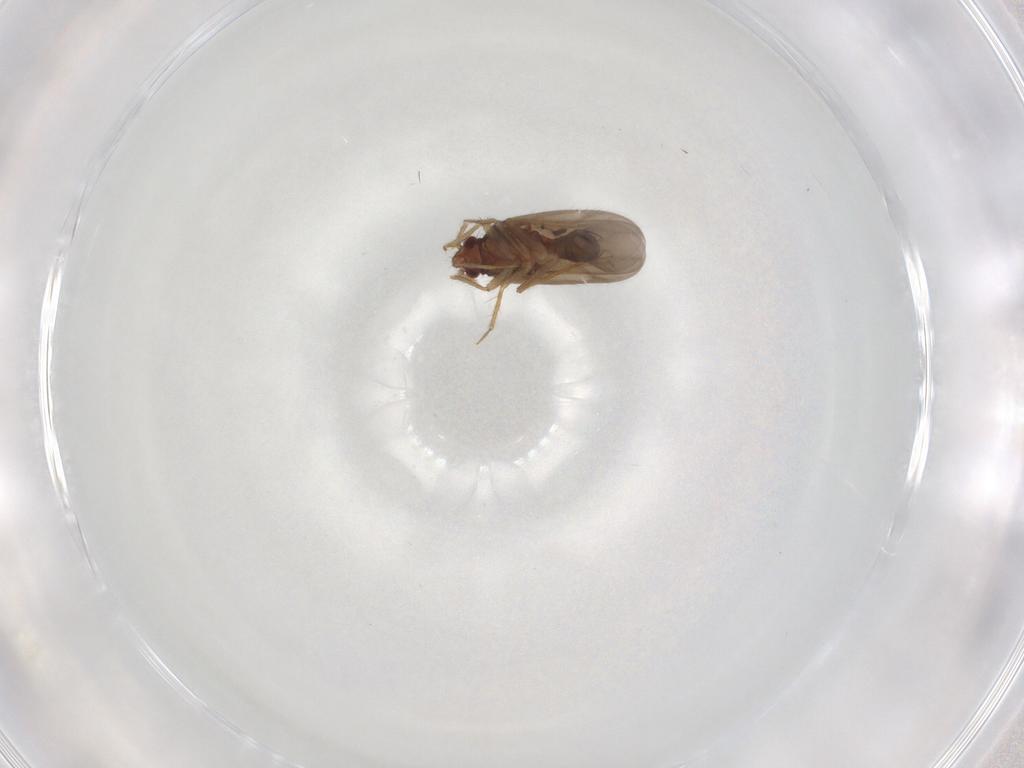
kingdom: Animalia
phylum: Arthropoda
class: Insecta
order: Hemiptera
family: Ceratocombidae
